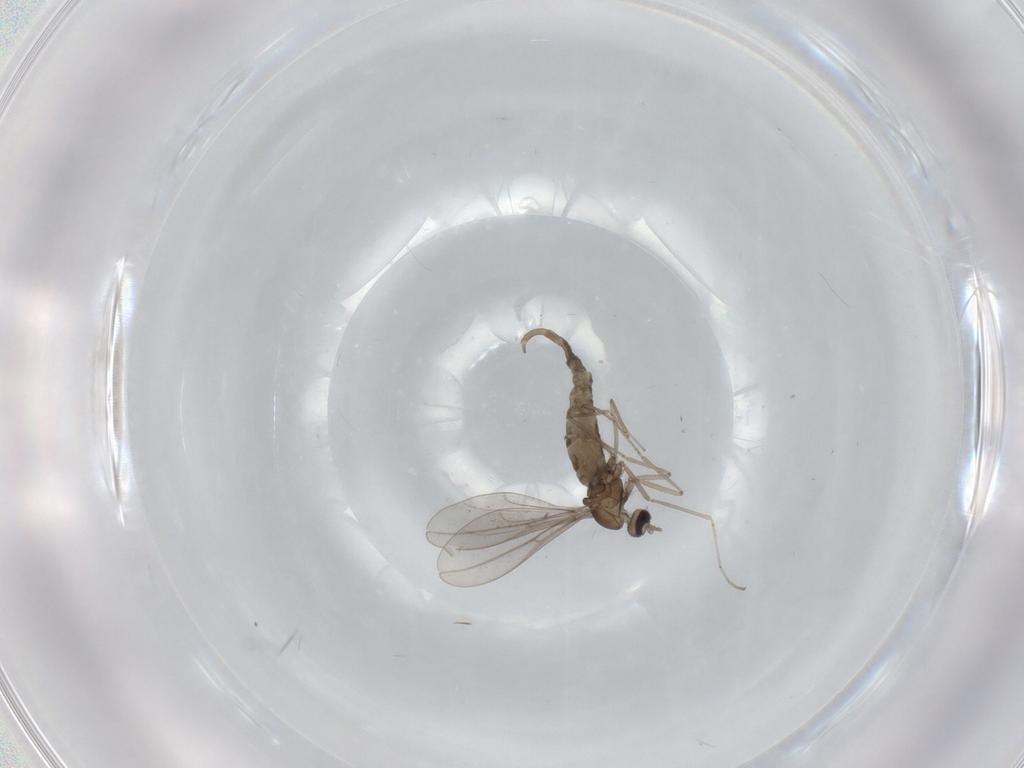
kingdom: Animalia
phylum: Arthropoda
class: Insecta
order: Diptera
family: Cecidomyiidae
